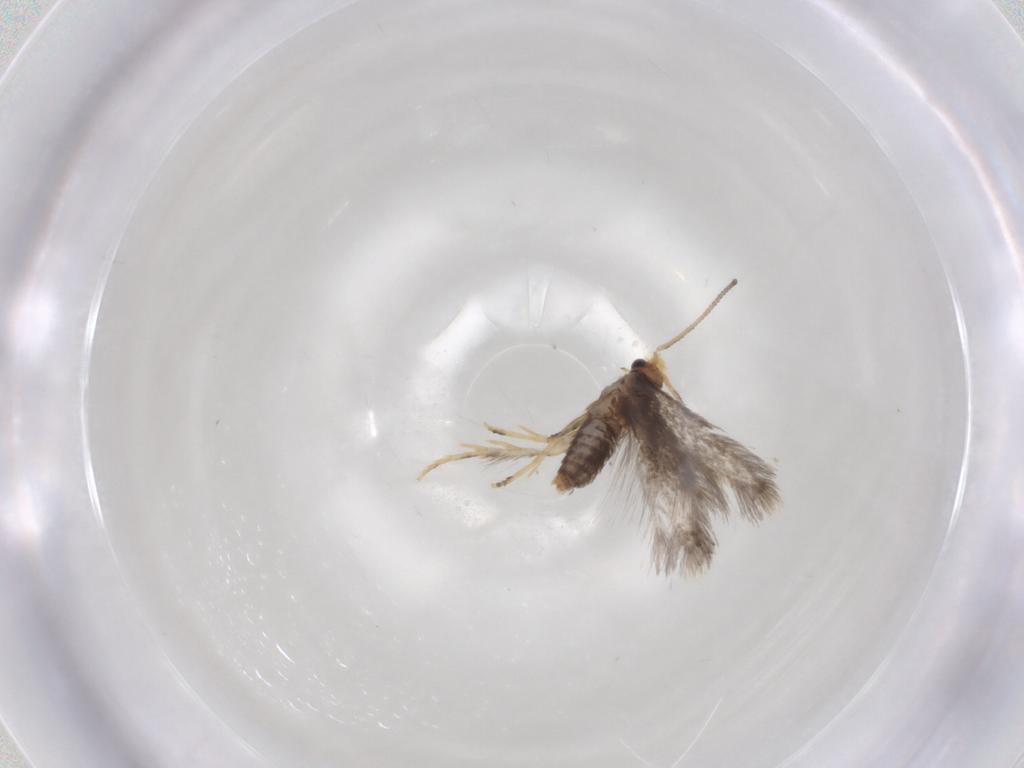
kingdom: Animalia
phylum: Arthropoda
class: Insecta
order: Lepidoptera
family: Nepticulidae
